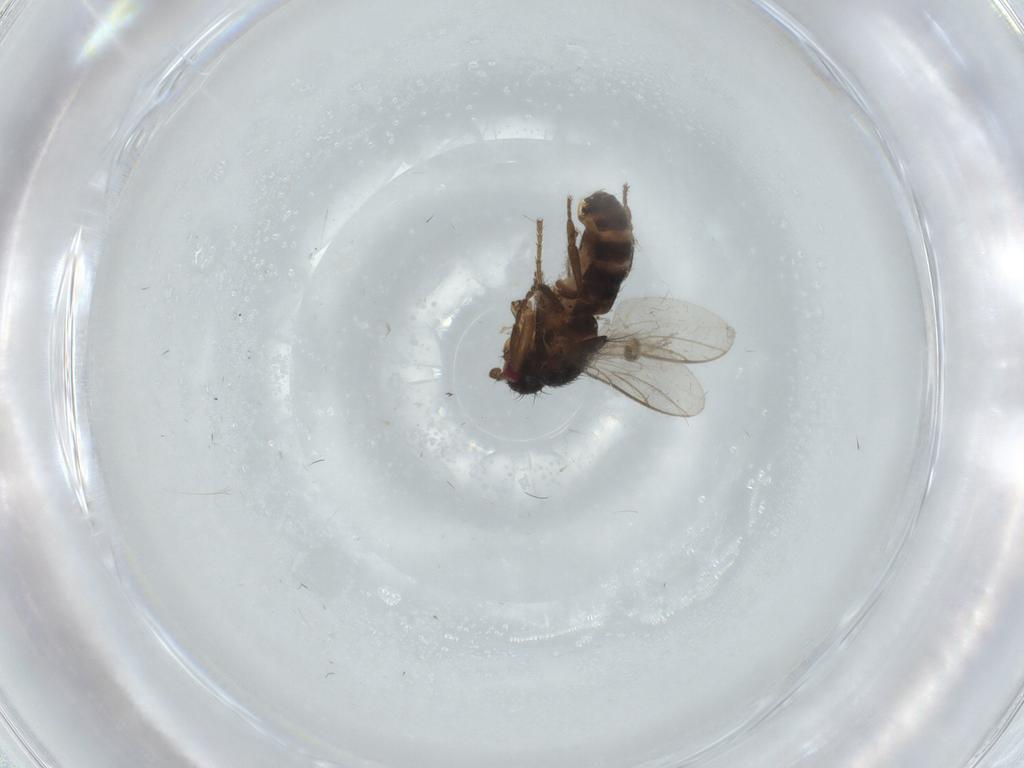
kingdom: Animalia
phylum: Arthropoda
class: Insecta
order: Diptera
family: Cecidomyiidae
